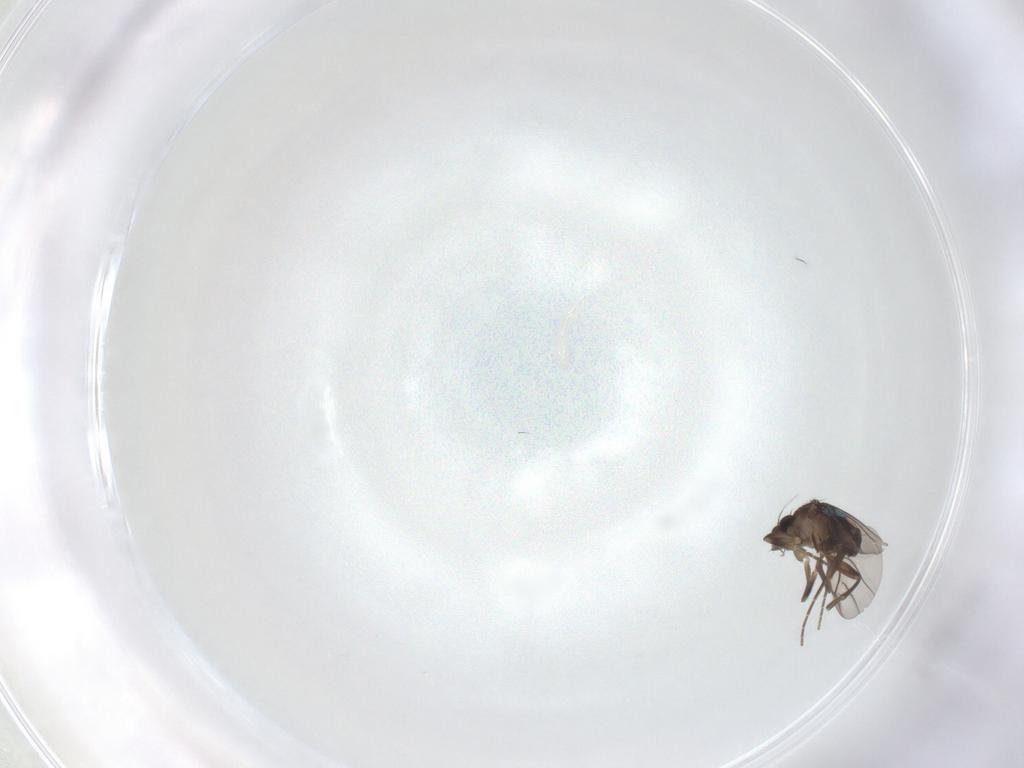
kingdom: Animalia
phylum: Arthropoda
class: Insecta
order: Diptera
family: Phoridae
